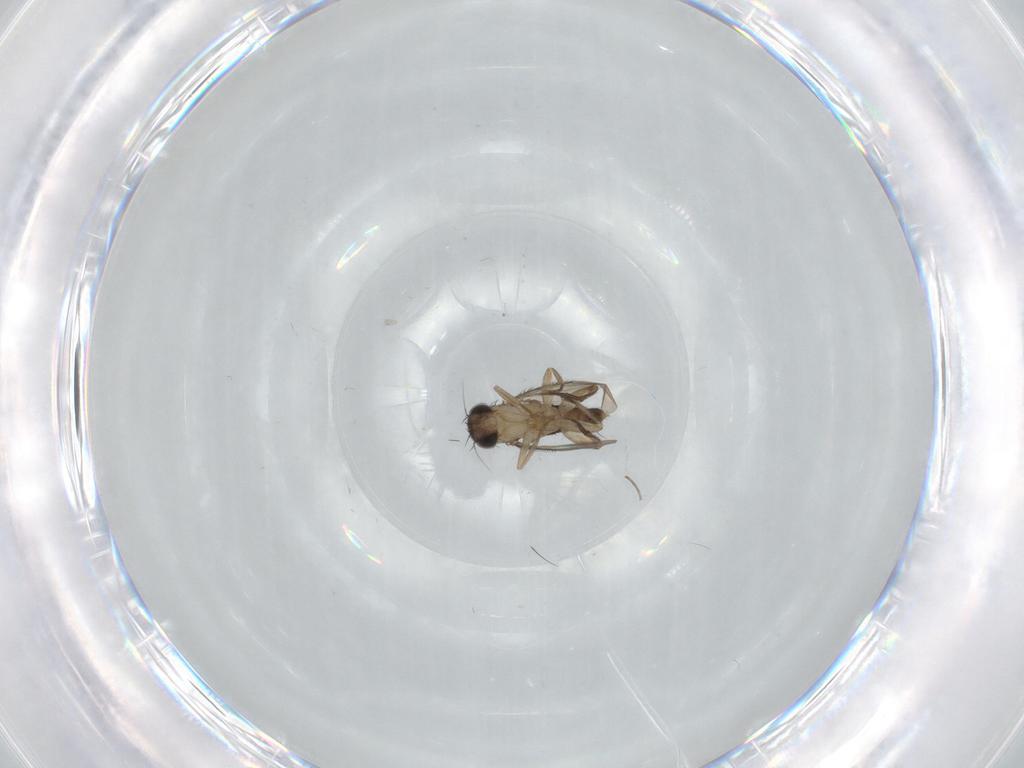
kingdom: Animalia
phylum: Arthropoda
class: Insecta
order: Diptera
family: Phoridae
